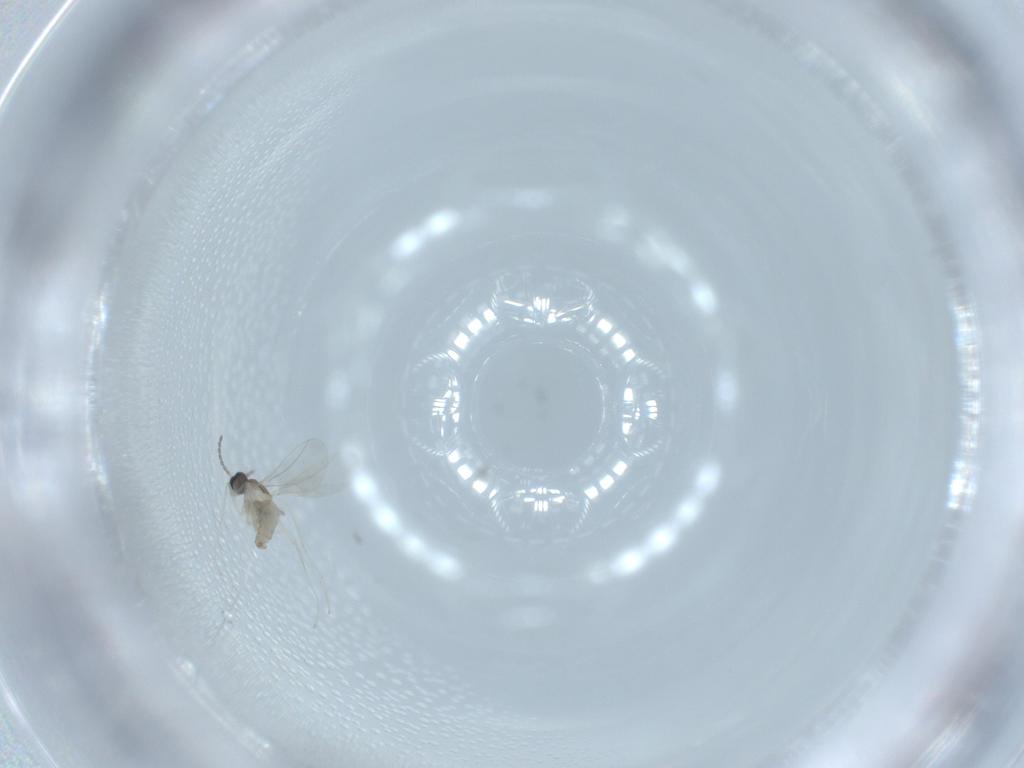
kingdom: Animalia
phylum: Arthropoda
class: Insecta
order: Diptera
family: Cecidomyiidae
